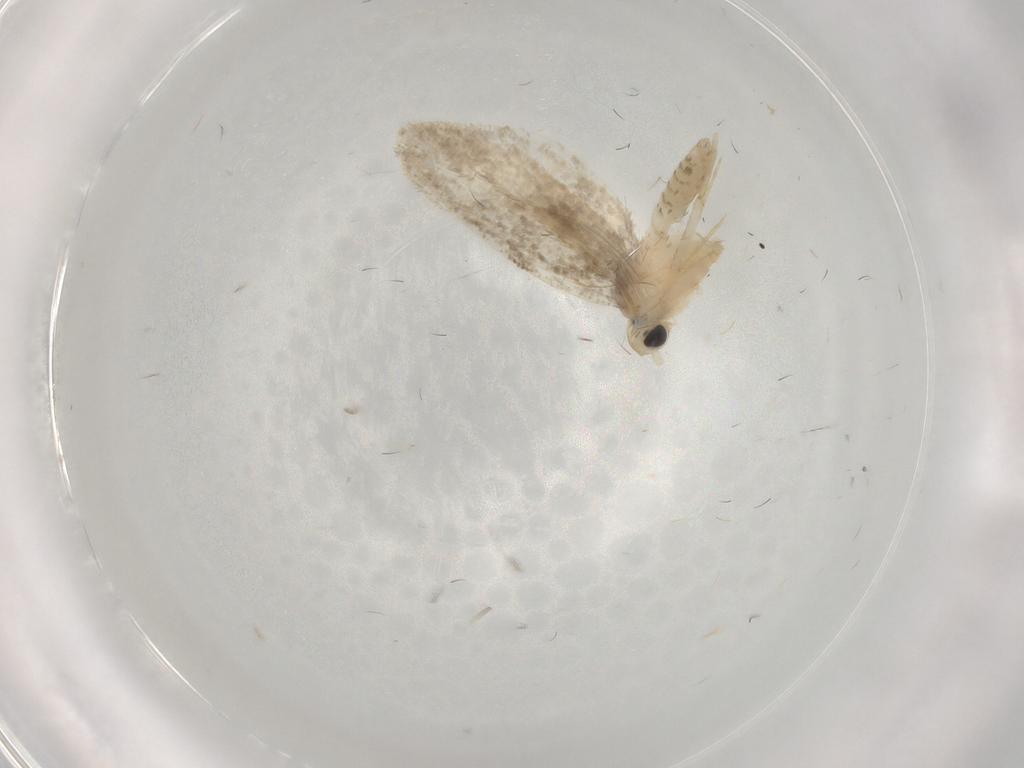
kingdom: Animalia
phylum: Arthropoda
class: Insecta
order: Lepidoptera
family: Psychidae
